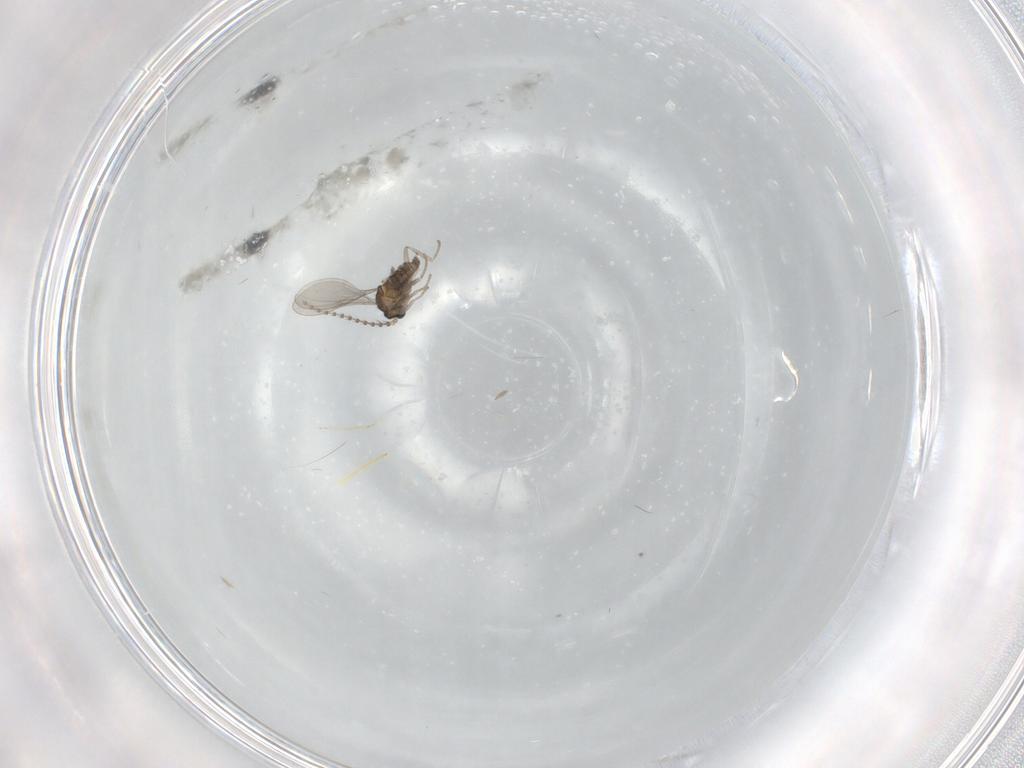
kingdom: Animalia
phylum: Arthropoda
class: Insecta
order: Diptera
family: Cecidomyiidae
